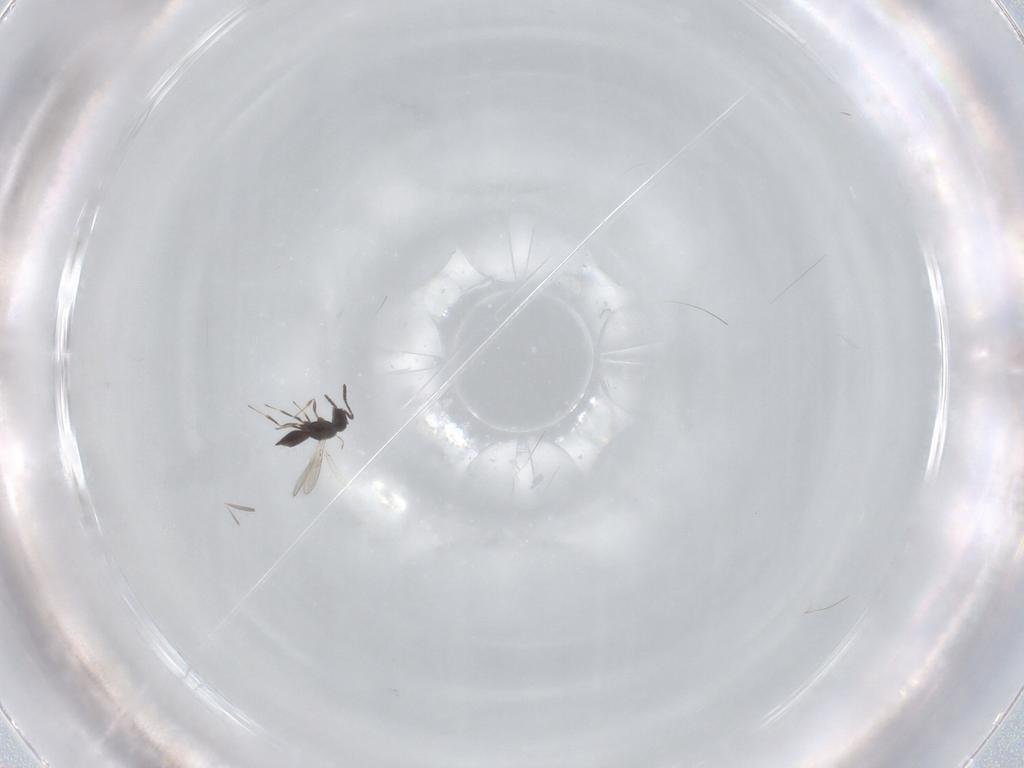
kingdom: Animalia
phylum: Arthropoda
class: Insecta
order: Hymenoptera
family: Scelionidae
